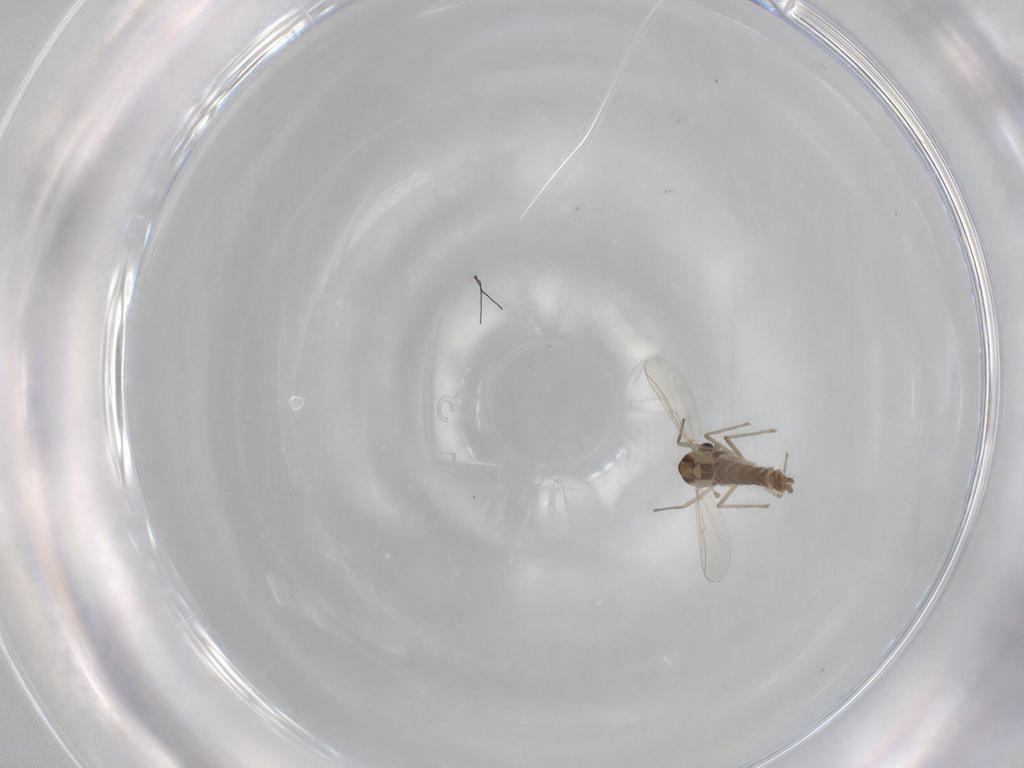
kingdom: Animalia
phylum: Arthropoda
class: Insecta
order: Diptera
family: Chironomidae
